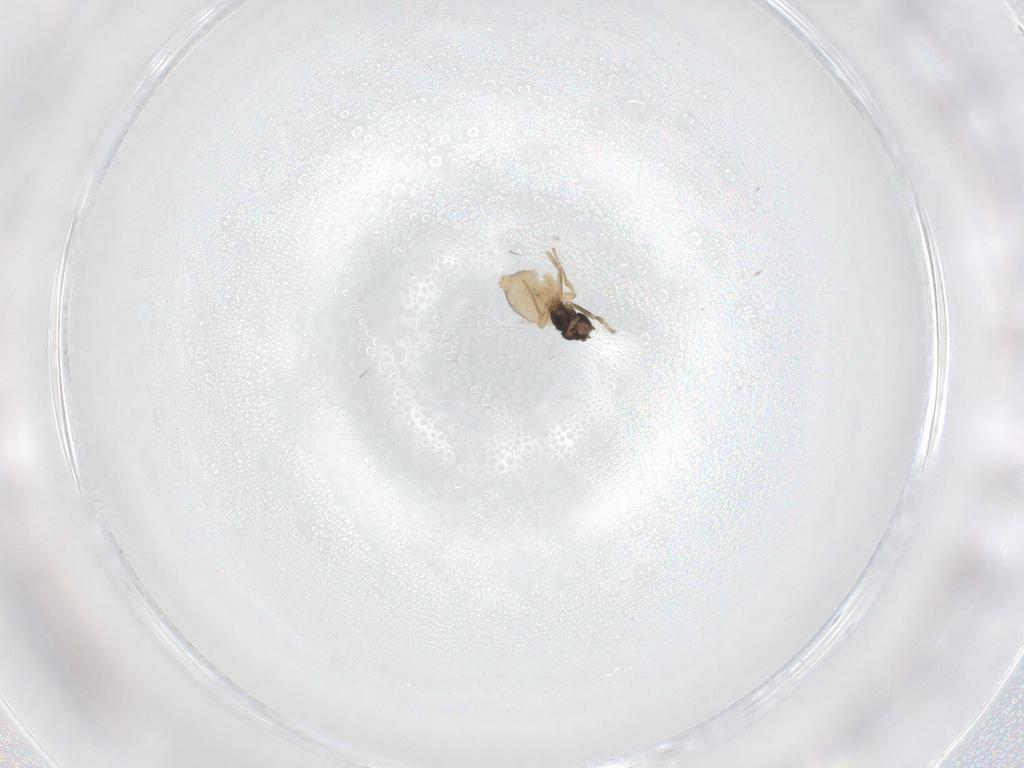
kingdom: Animalia
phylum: Arthropoda
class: Insecta
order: Diptera
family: Phoridae
